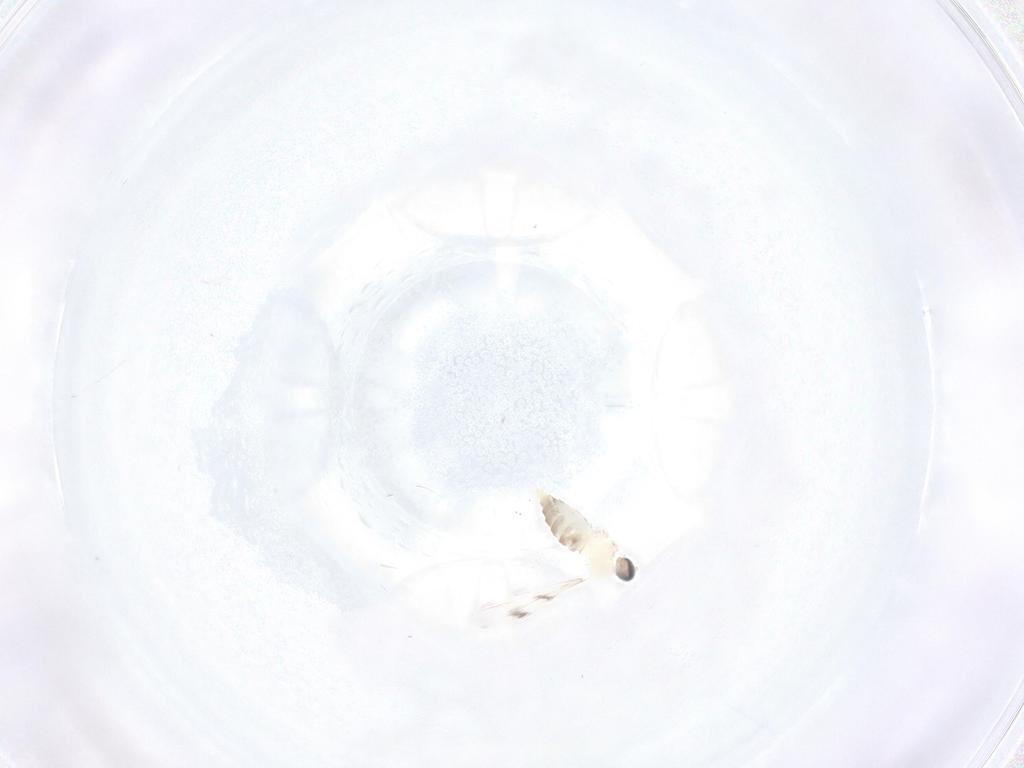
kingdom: Animalia
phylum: Arthropoda
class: Insecta
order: Diptera
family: Cecidomyiidae
